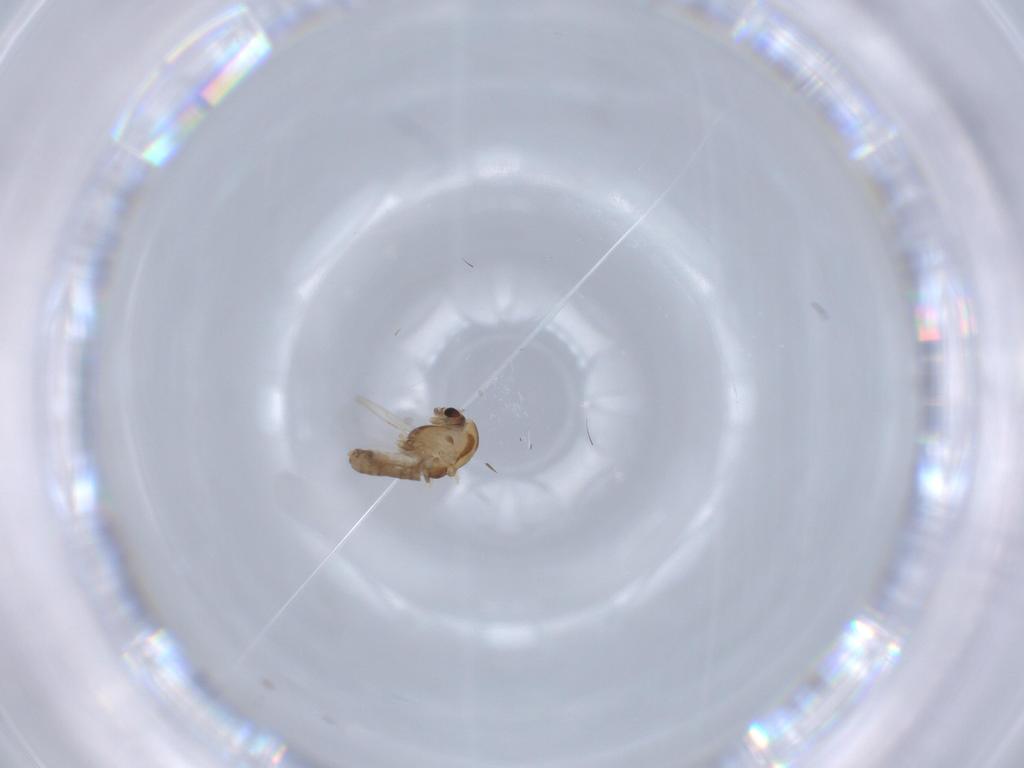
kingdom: Animalia
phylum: Arthropoda
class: Insecta
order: Diptera
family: Chironomidae
